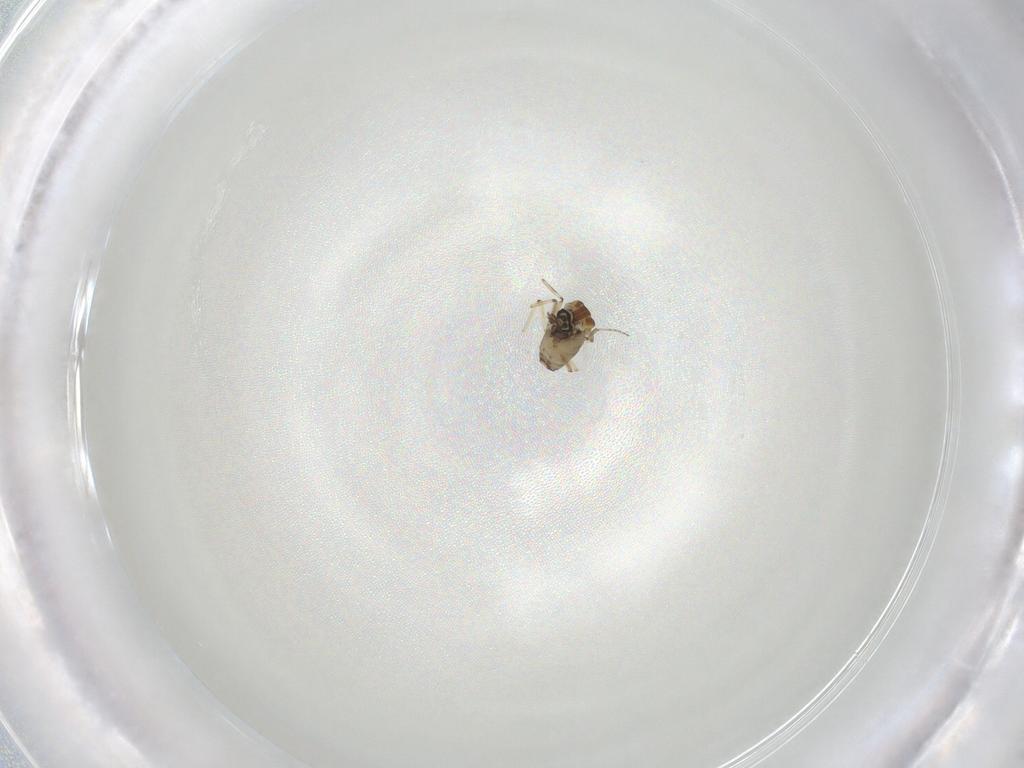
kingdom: Animalia
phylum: Arthropoda
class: Insecta
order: Diptera
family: Ceratopogonidae
